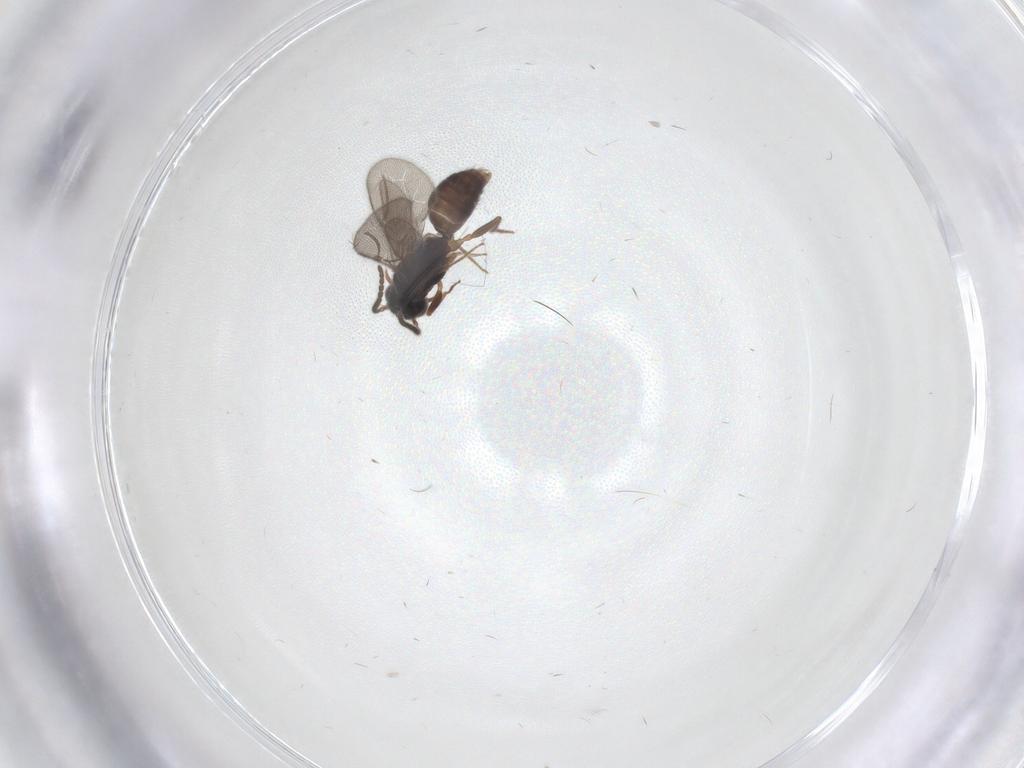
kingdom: Animalia
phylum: Arthropoda
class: Insecta
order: Hymenoptera
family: Bethylidae
